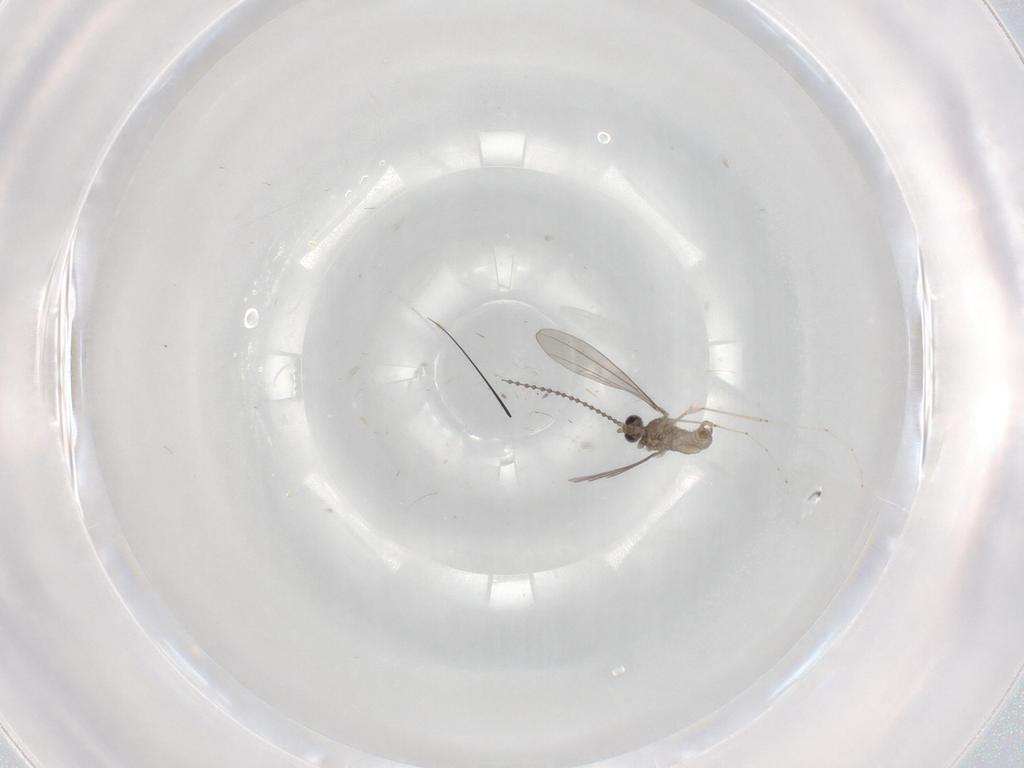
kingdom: Animalia
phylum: Arthropoda
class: Insecta
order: Diptera
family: Cecidomyiidae
